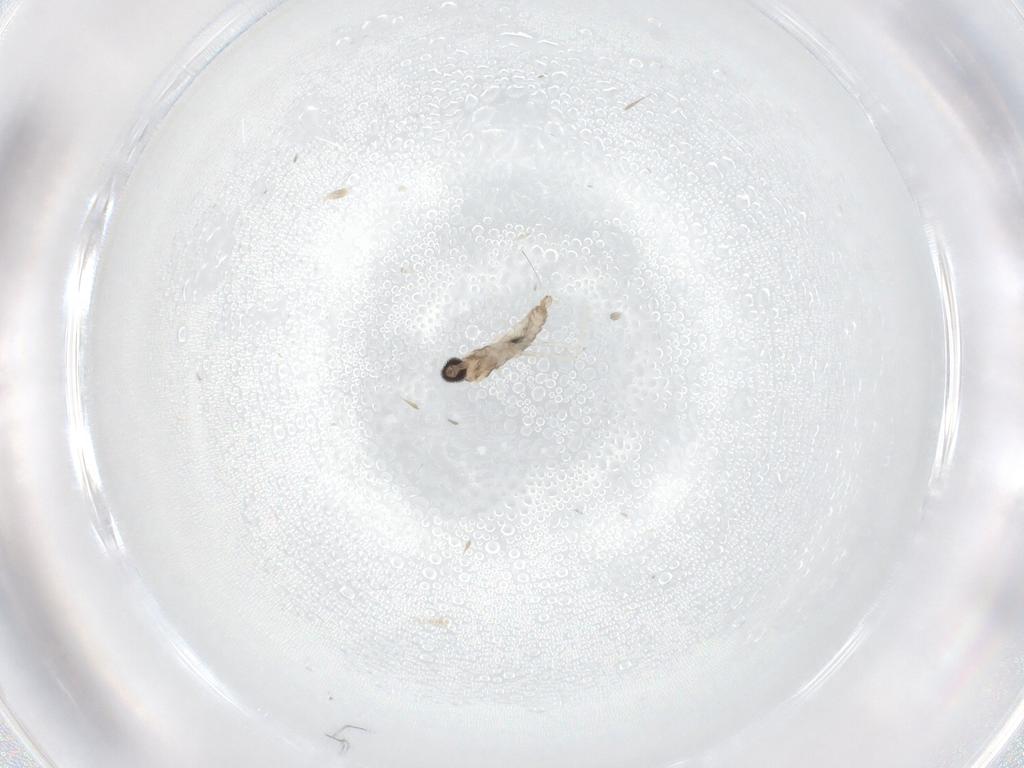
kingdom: Animalia
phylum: Arthropoda
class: Insecta
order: Diptera
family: Cecidomyiidae
